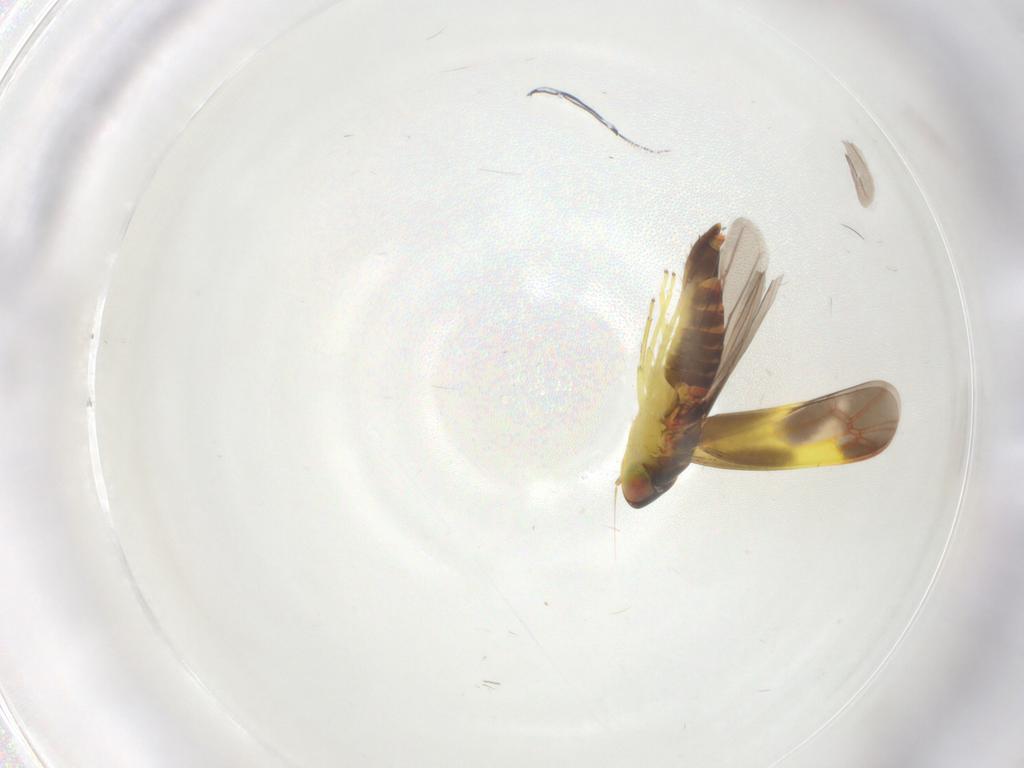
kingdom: Animalia
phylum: Arthropoda
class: Insecta
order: Hemiptera
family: Cicadellidae
